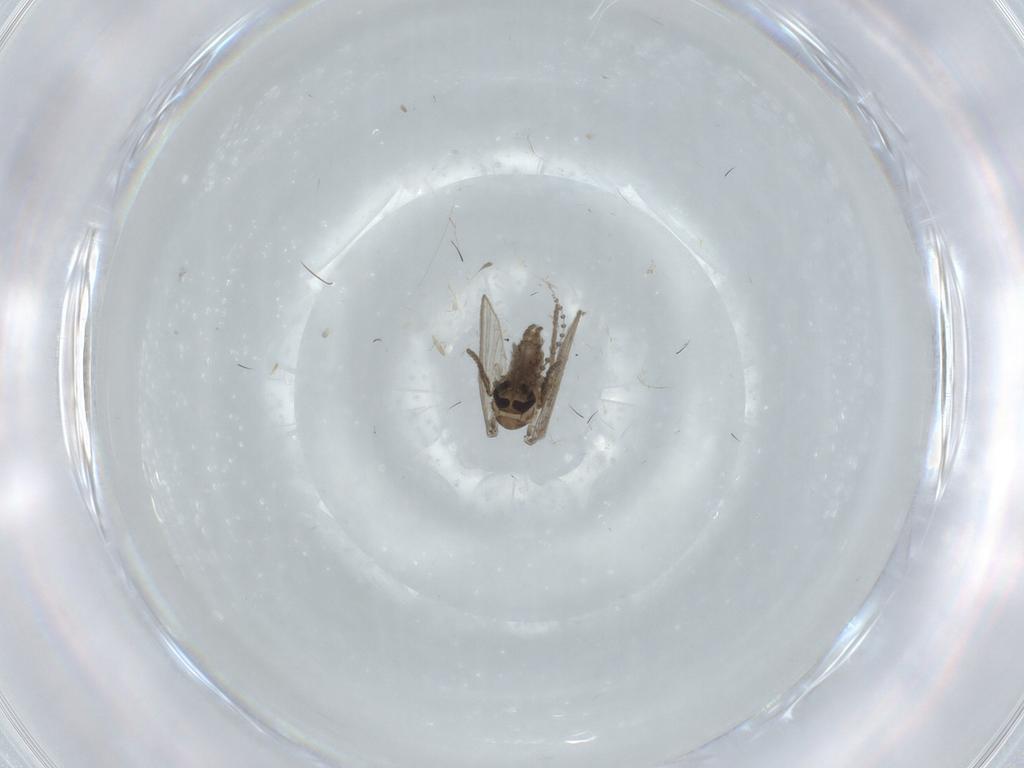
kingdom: Animalia
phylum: Arthropoda
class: Insecta
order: Diptera
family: Psychodidae
